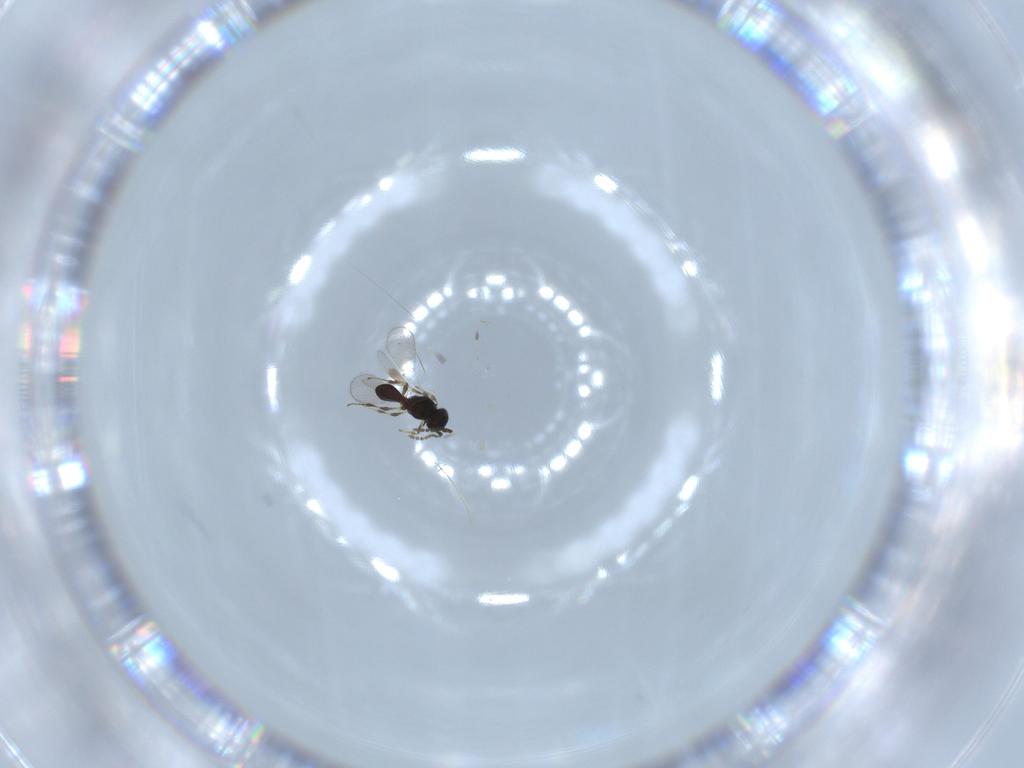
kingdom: Animalia
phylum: Arthropoda
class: Insecta
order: Hymenoptera
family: Platygastridae
